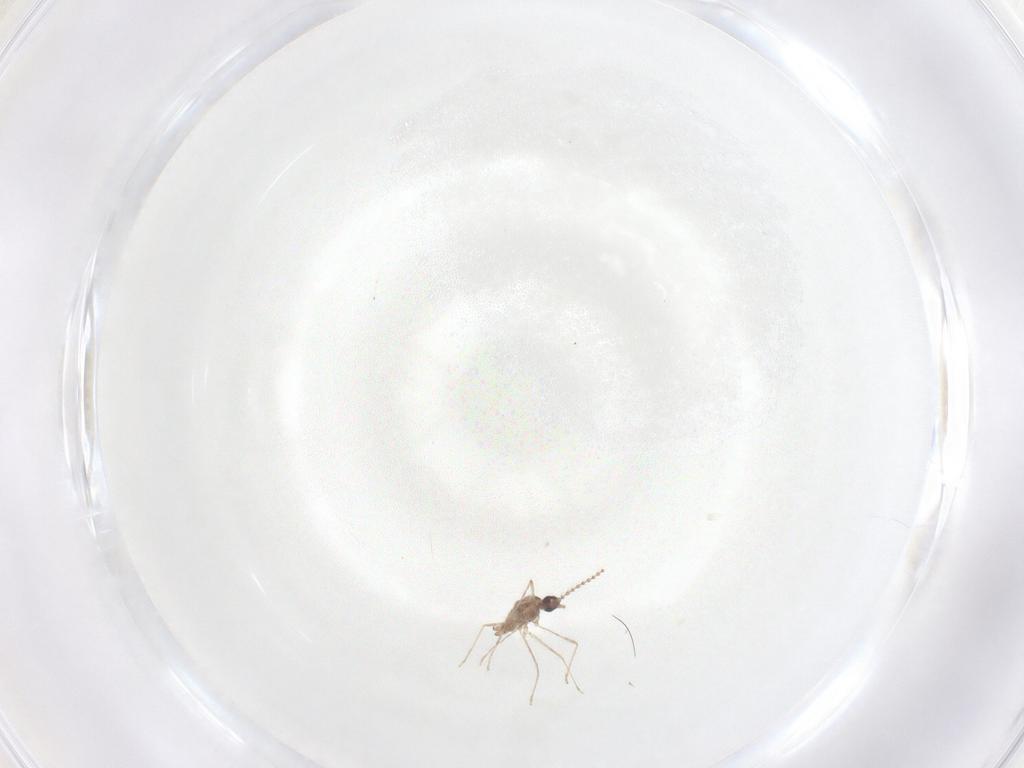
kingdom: Animalia
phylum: Arthropoda
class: Insecta
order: Diptera
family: Cecidomyiidae
